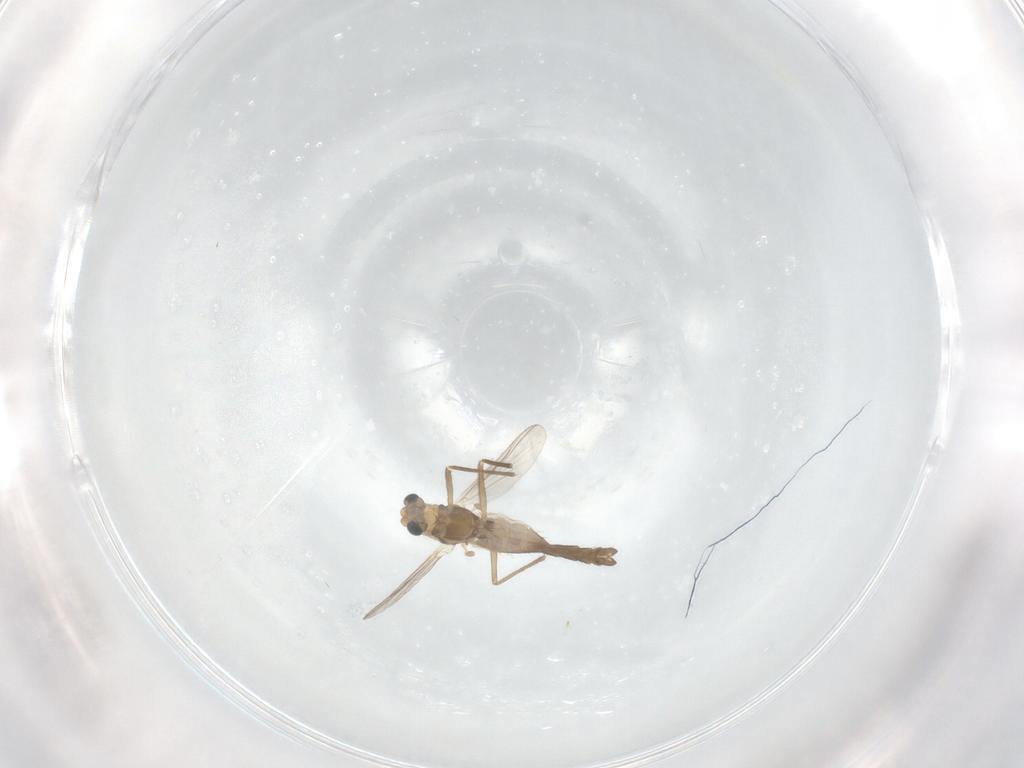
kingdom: Animalia
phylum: Arthropoda
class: Insecta
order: Diptera
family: Chironomidae
